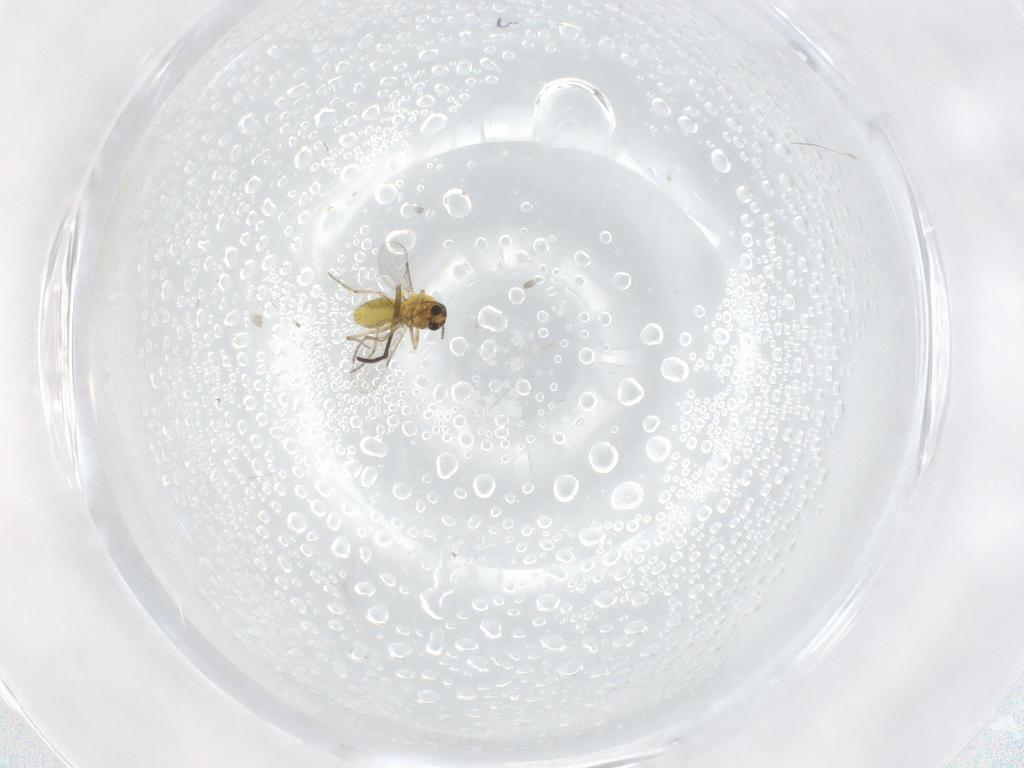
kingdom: Animalia
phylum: Arthropoda
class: Insecta
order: Diptera
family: Sciaridae
